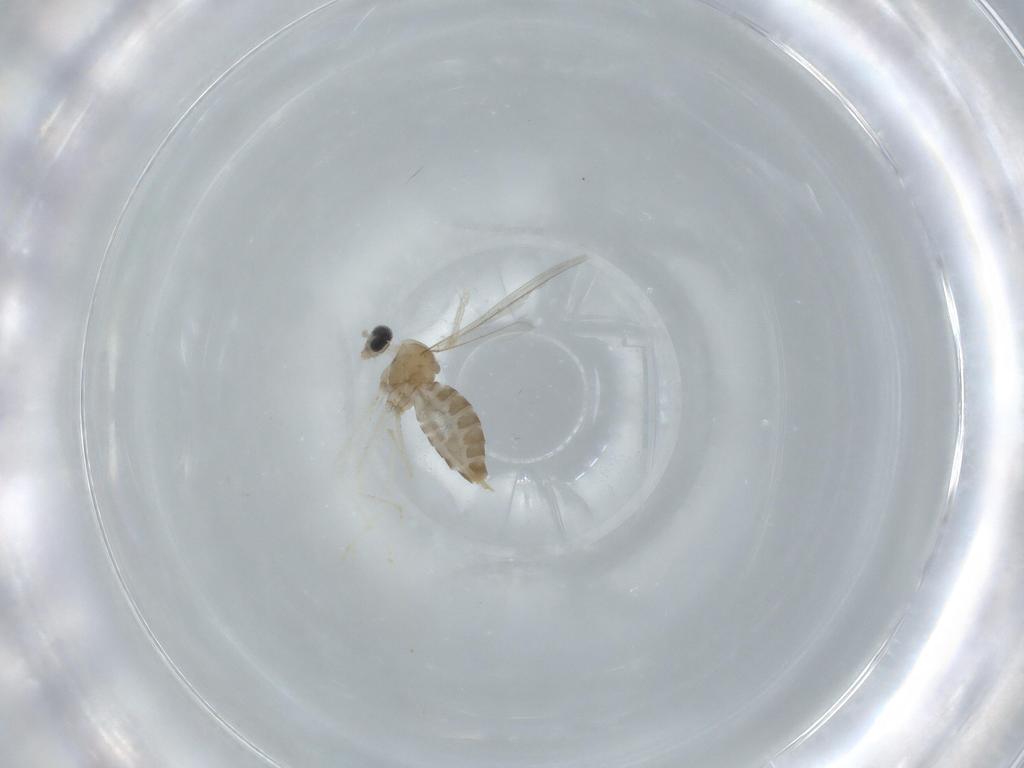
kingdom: Animalia
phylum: Arthropoda
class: Insecta
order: Diptera
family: Cecidomyiidae
